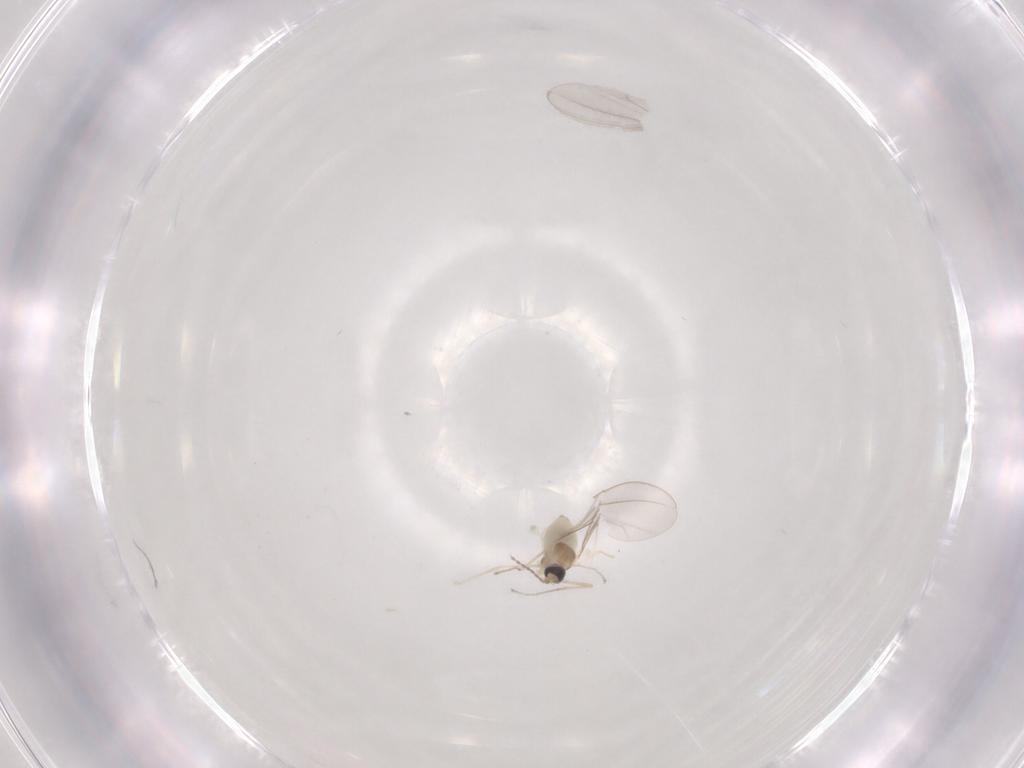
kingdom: Animalia
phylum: Arthropoda
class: Insecta
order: Diptera
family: Cecidomyiidae
